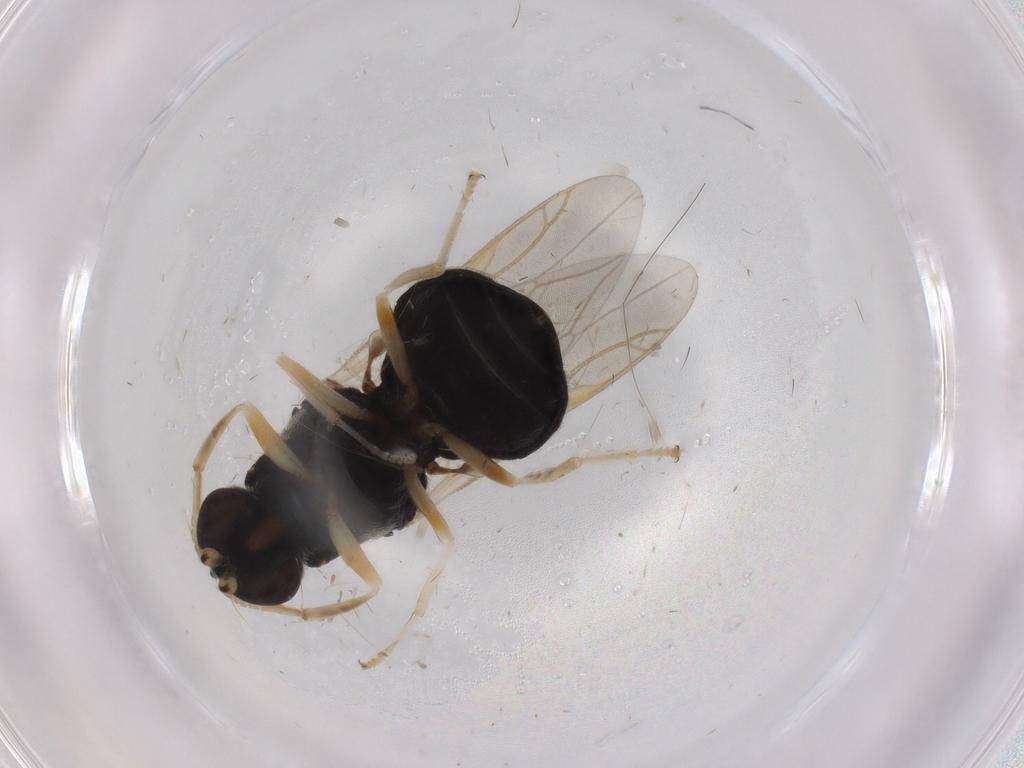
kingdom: Animalia
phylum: Arthropoda
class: Insecta
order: Diptera
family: Stratiomyidae
